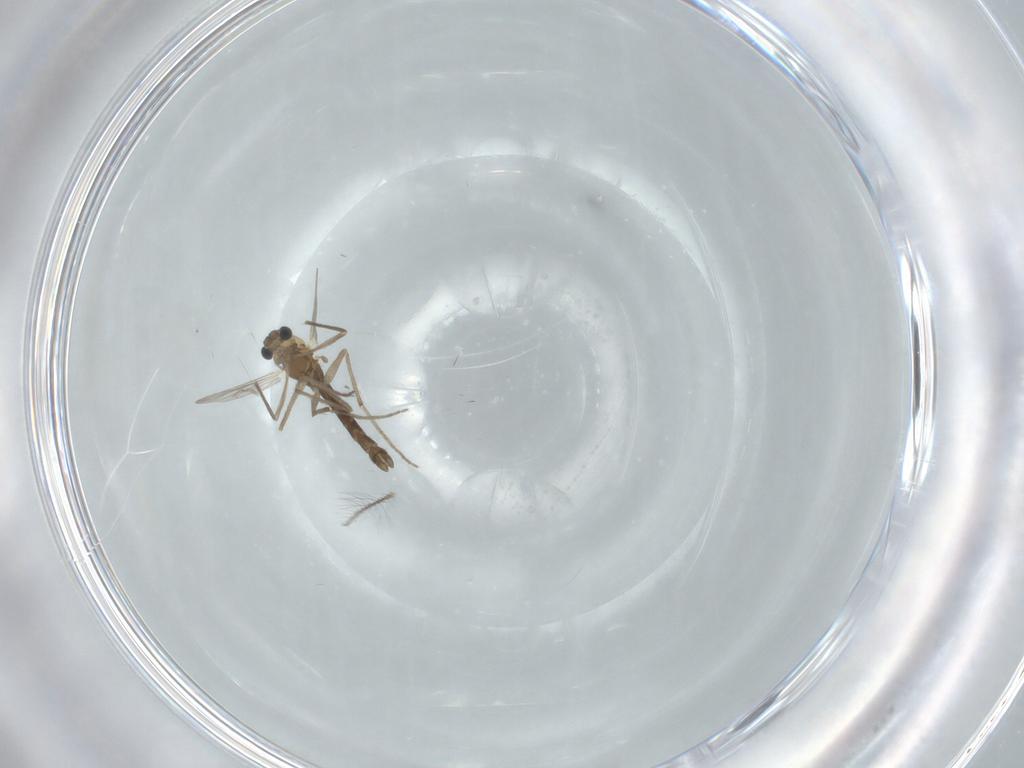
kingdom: Animalia
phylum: Arthropoda
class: Insecta
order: Diptera
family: Chironomidae
